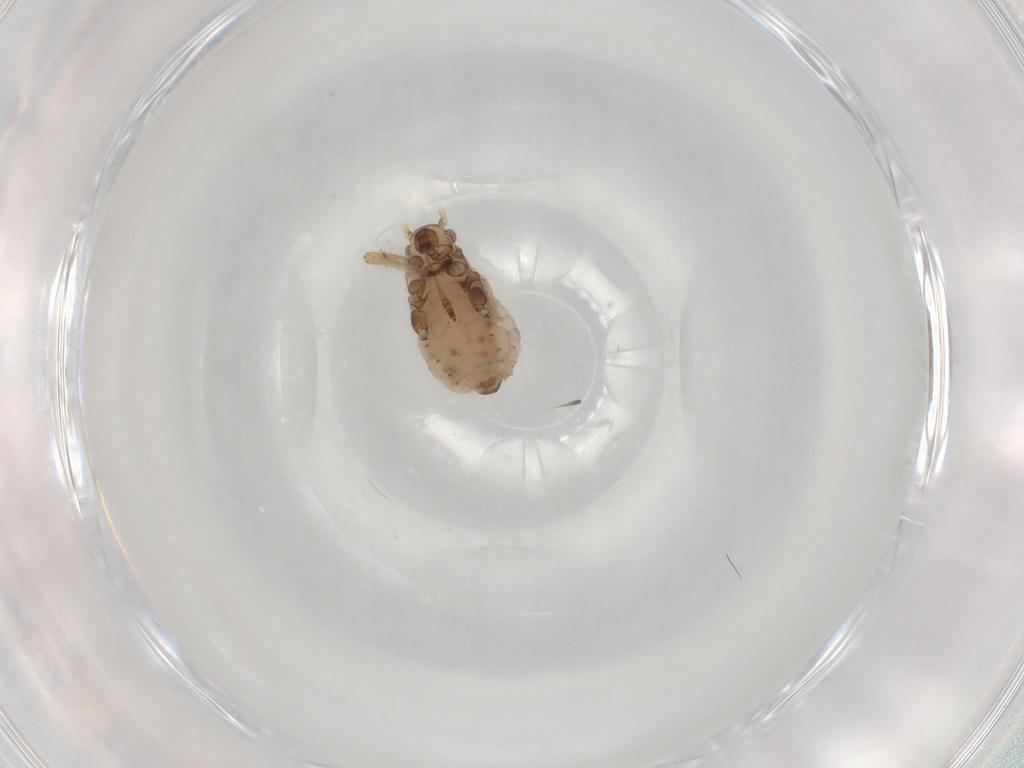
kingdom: Animalia
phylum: Arthropoda
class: Insecta
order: Hemiptera
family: Aphididae
